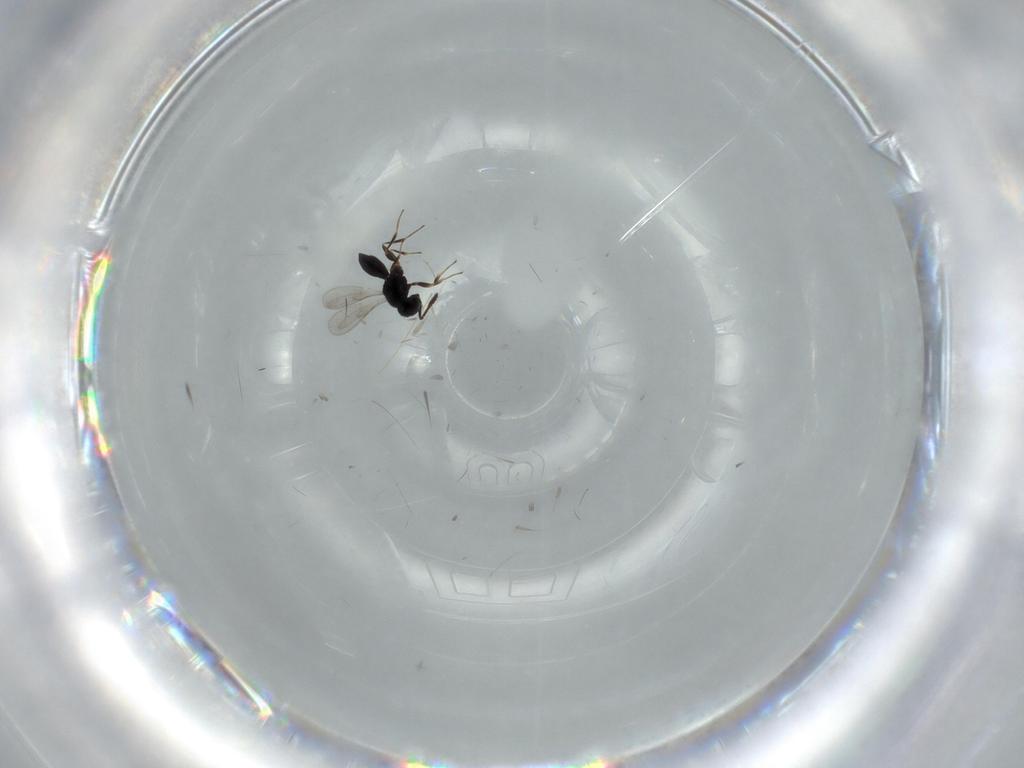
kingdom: Animalia
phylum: Arthropoda
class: Insecta
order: Hymenoptera
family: Scelionidae
